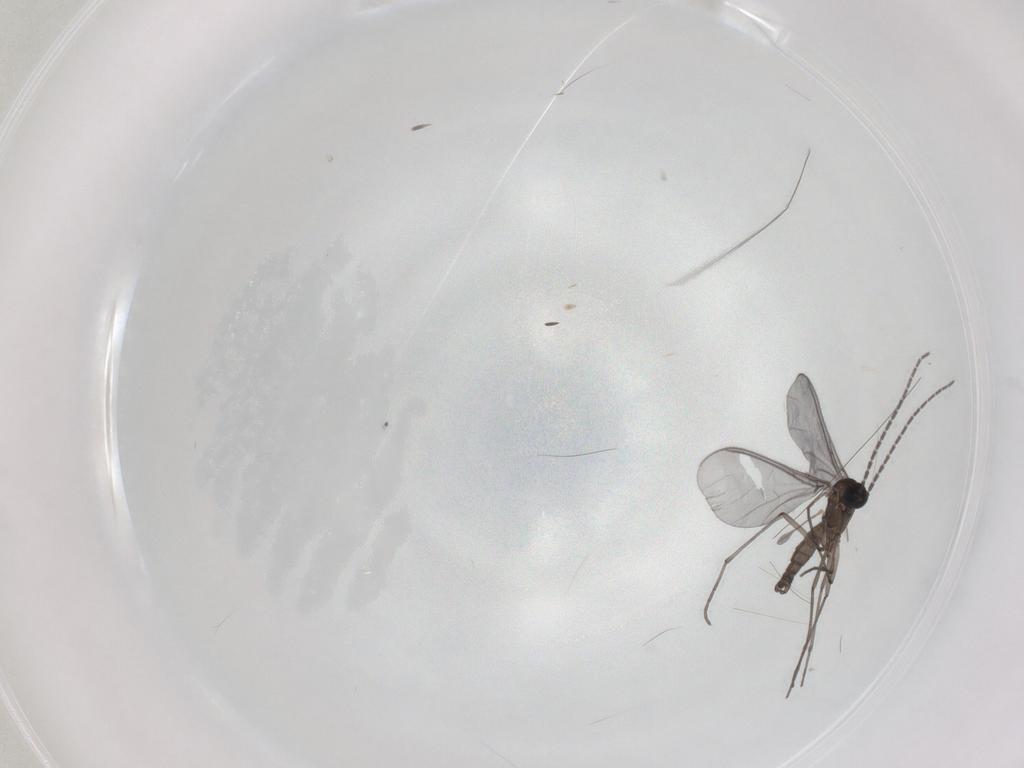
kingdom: Animalia
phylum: Arthropoda
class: Insecta
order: Diptera
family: Sciaridae
